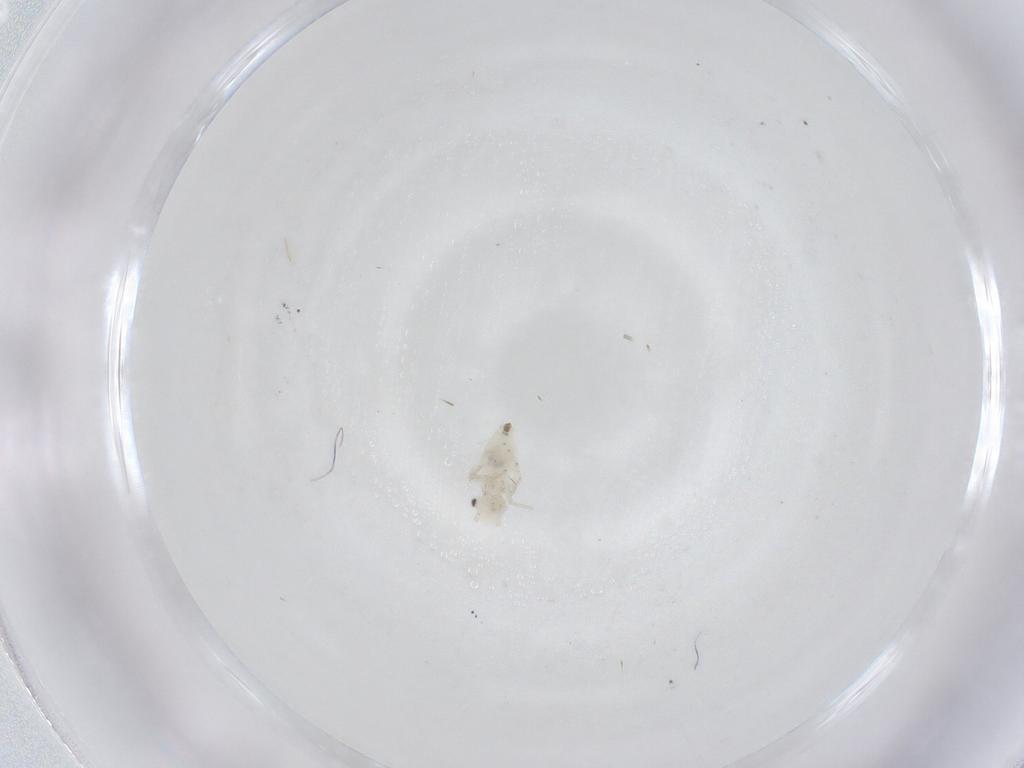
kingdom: Animalia
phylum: Arthropoda
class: Insecta
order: Psocodea
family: Caeciliusidae
